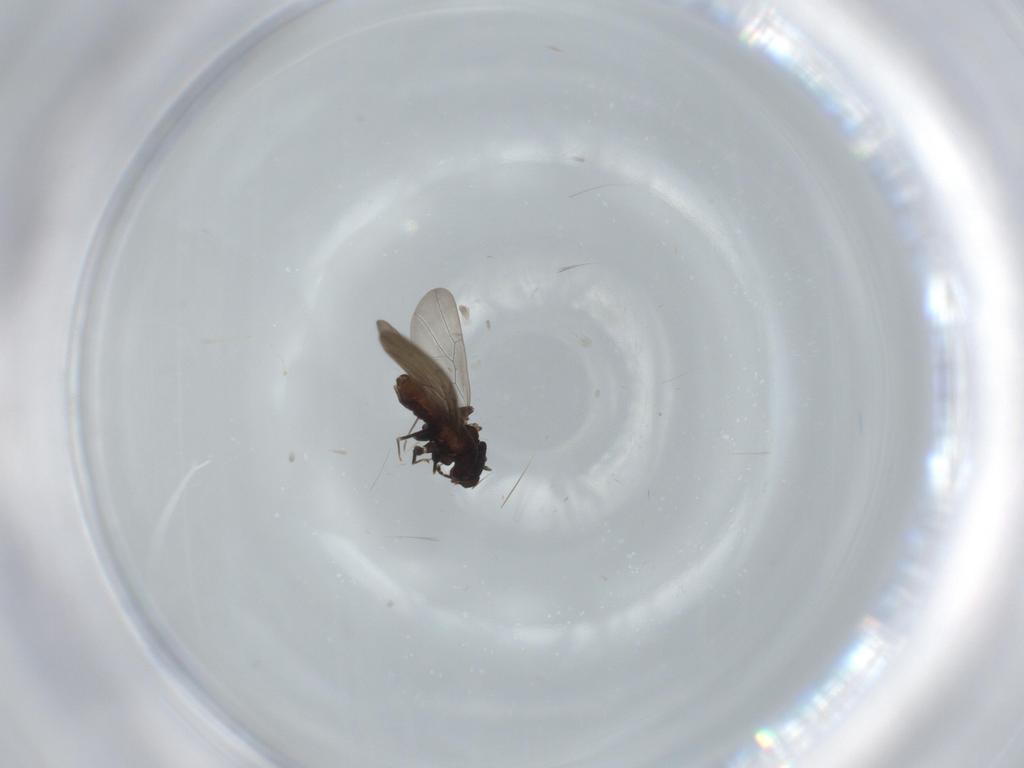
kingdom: Animalia
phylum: Arthropoda
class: Insecta
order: Psocodea
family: Lepidopsocidae
